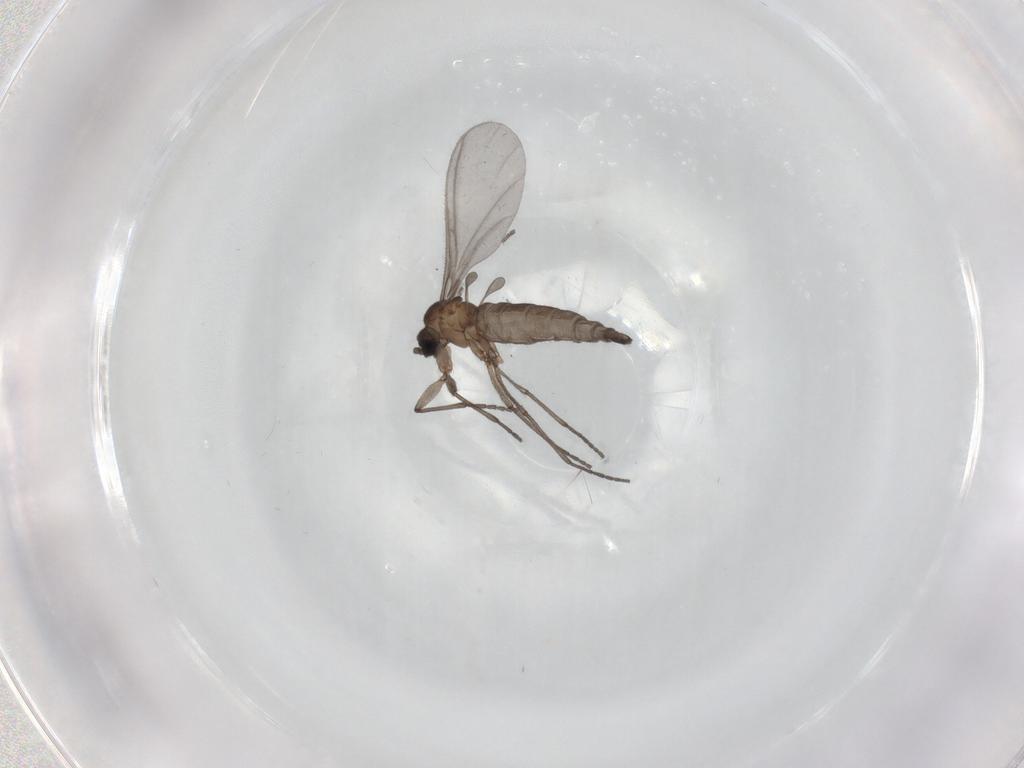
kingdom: Animalia
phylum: Arthropoda
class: Insecta
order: Diptera
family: Sciaridae
